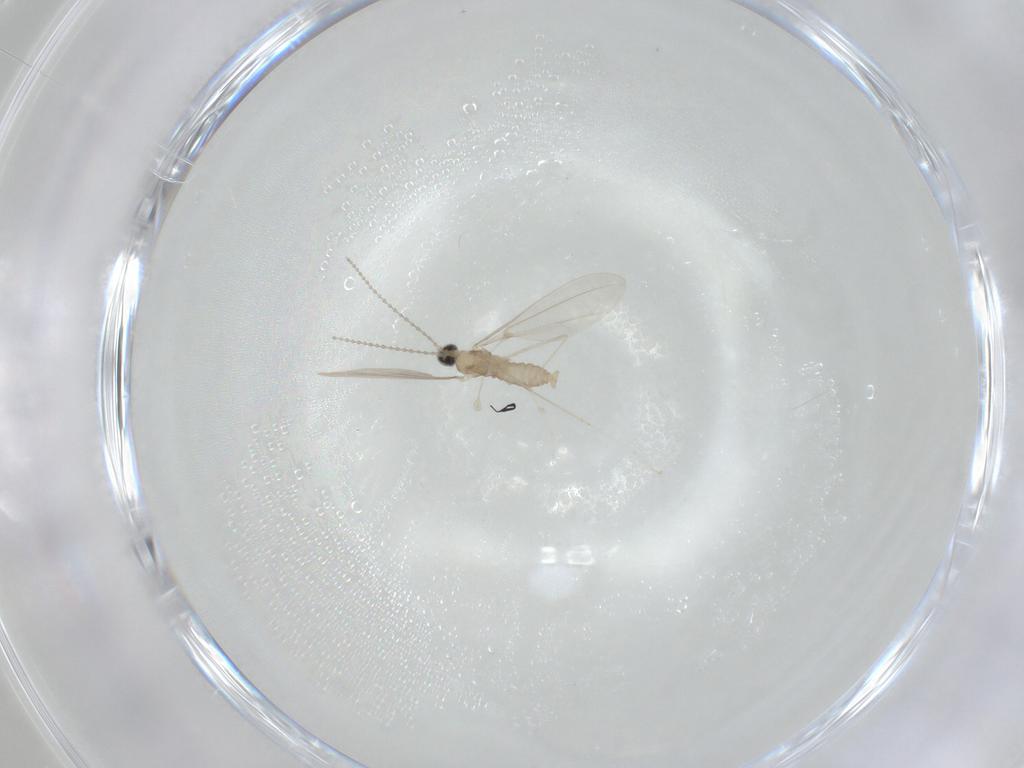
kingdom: Animalia
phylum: Arthropoda
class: Insecta
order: Diptera
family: Cecidomyiidae
